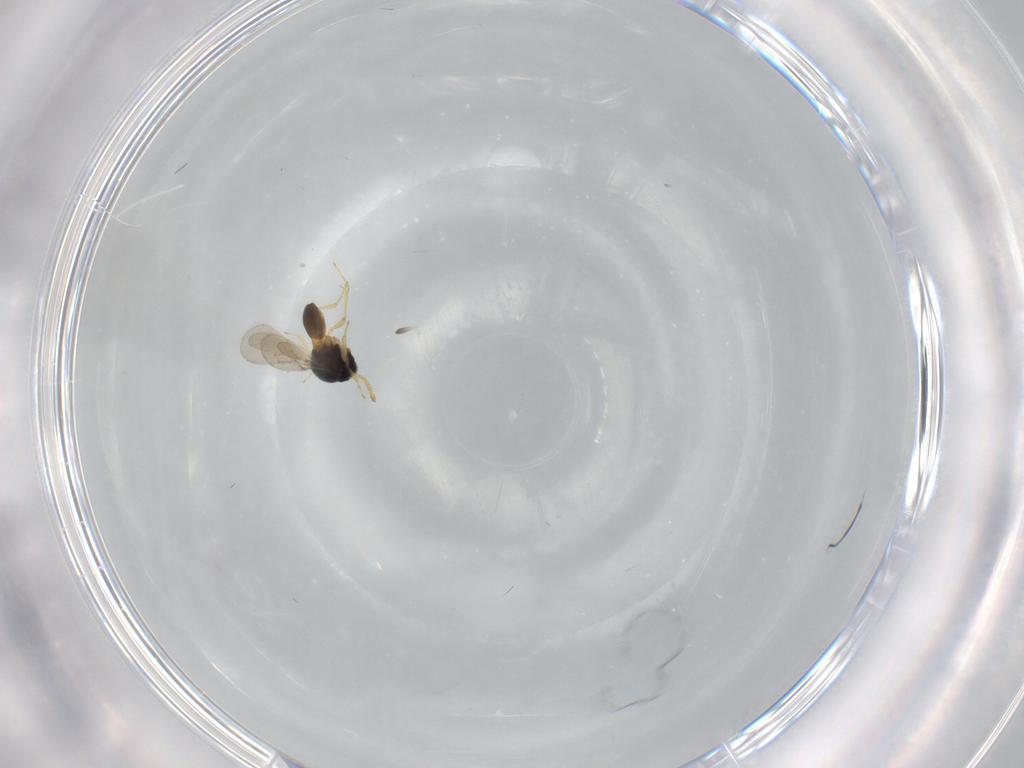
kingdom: Animalia
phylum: Arthropoda
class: Insecta
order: Hymenoptera
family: Scelionidae
